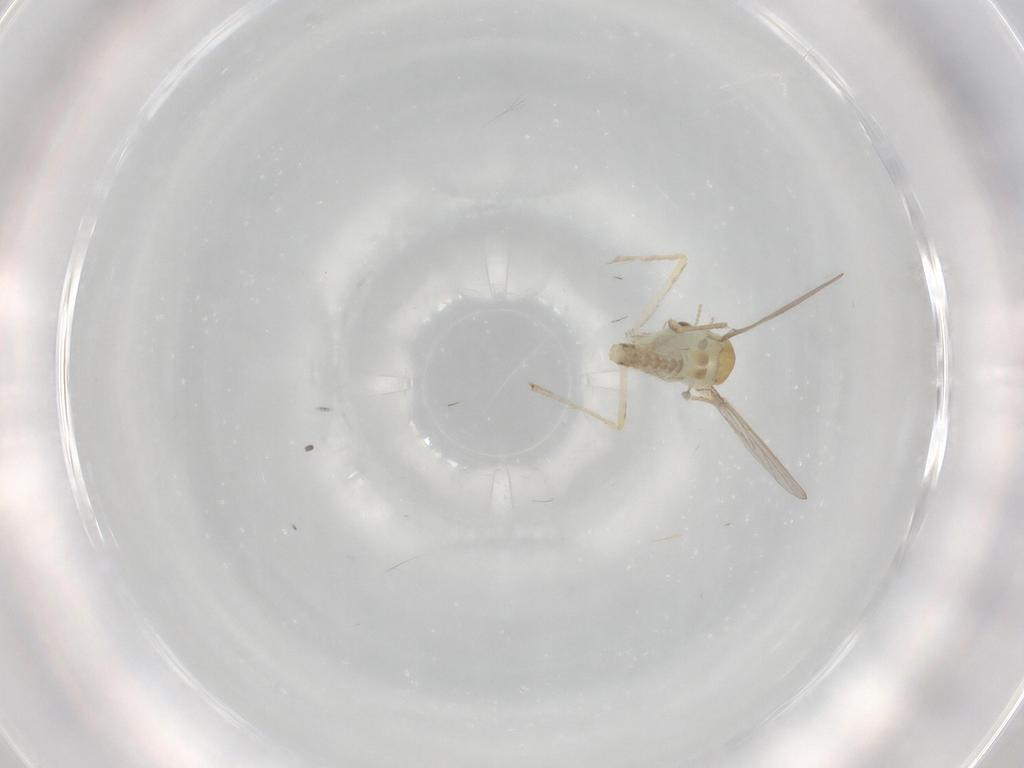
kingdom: Animalia
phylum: Arthropoda
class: Insecta
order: Diptera
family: Chironomidae
